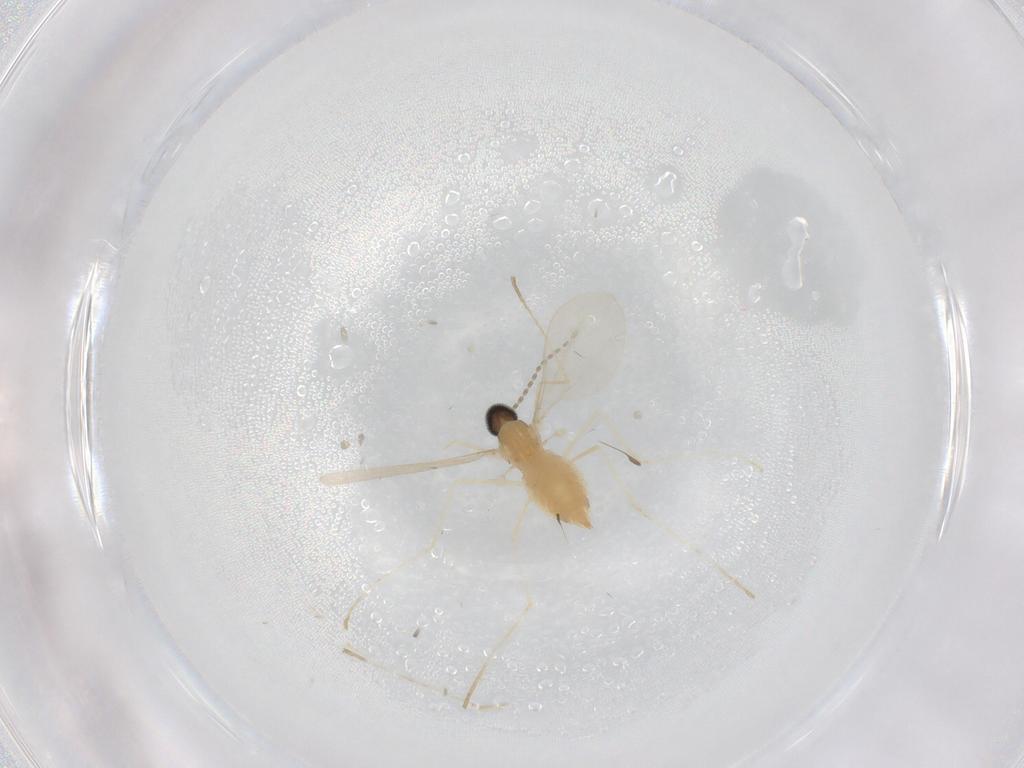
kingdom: Animalia
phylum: Arthropoda
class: Insecta
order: Diptera
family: Cecidomyiidae
